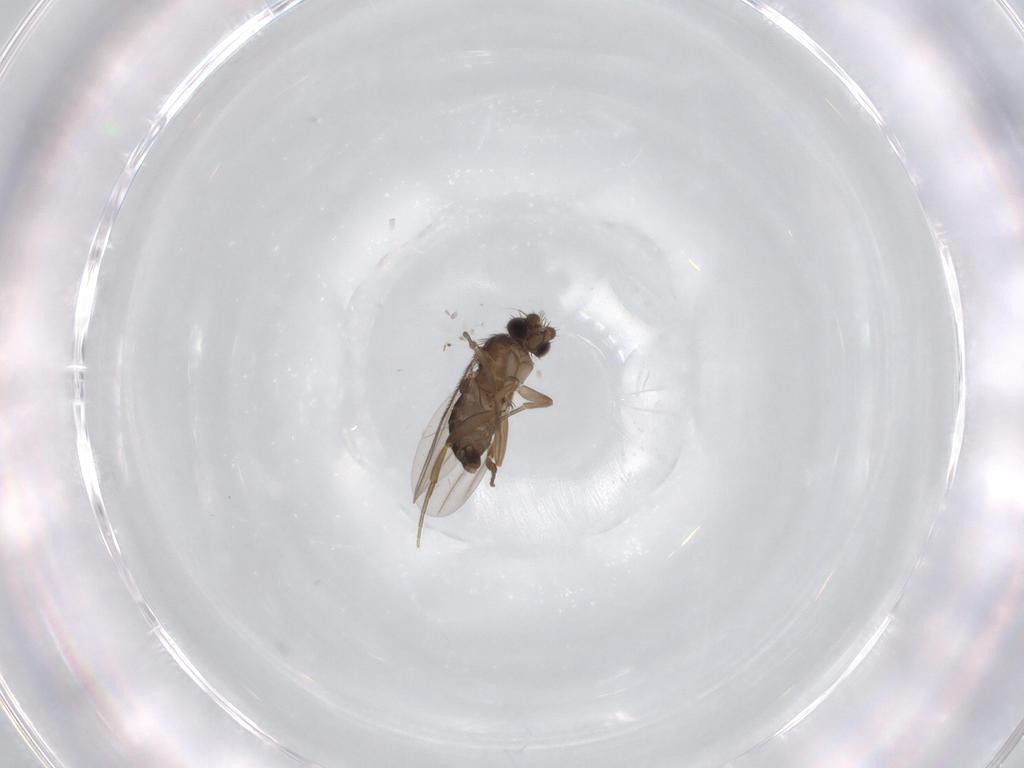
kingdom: Animalia
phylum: Arthropoda
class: Insecta
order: Diptera
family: Phoridae
